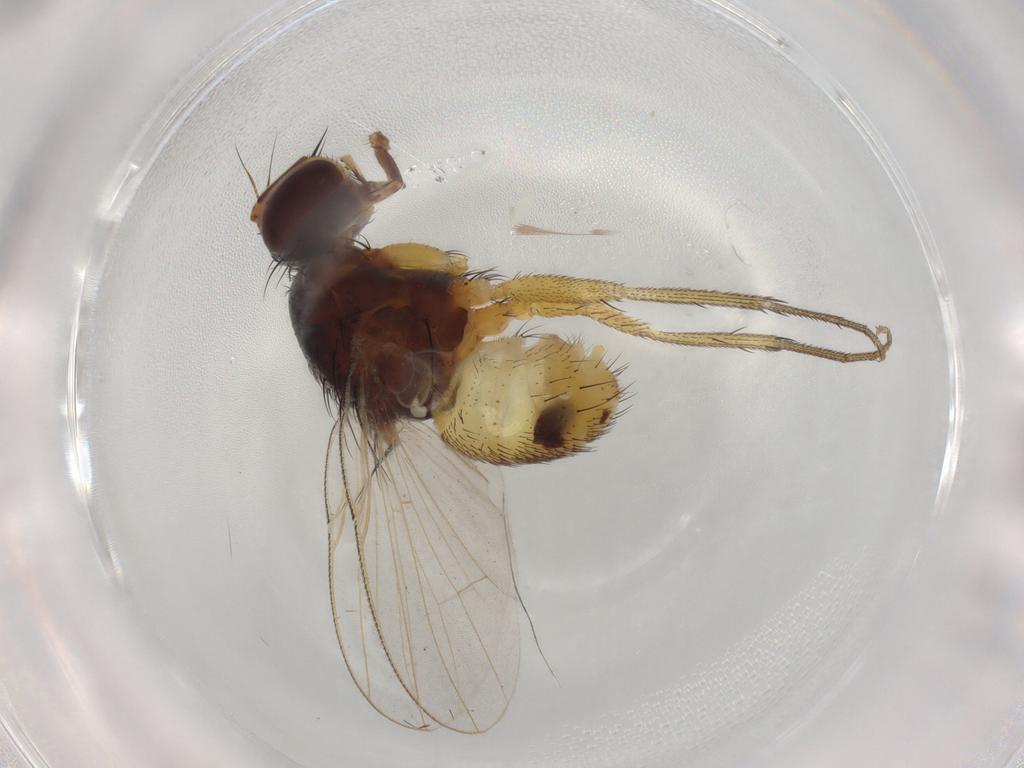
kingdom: Animalia
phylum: Arthropoda
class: Insecta
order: Diptera
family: Muscidae
